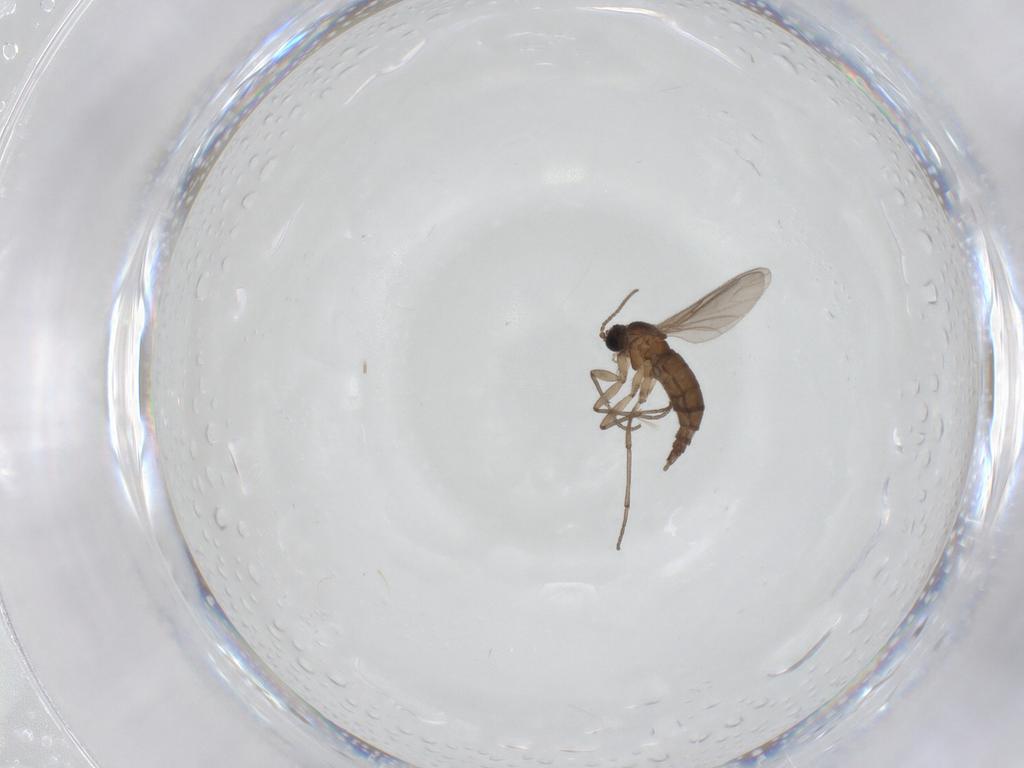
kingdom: Animalia
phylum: Arthropoda
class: Insecta
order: Diptera
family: Sciaridae
